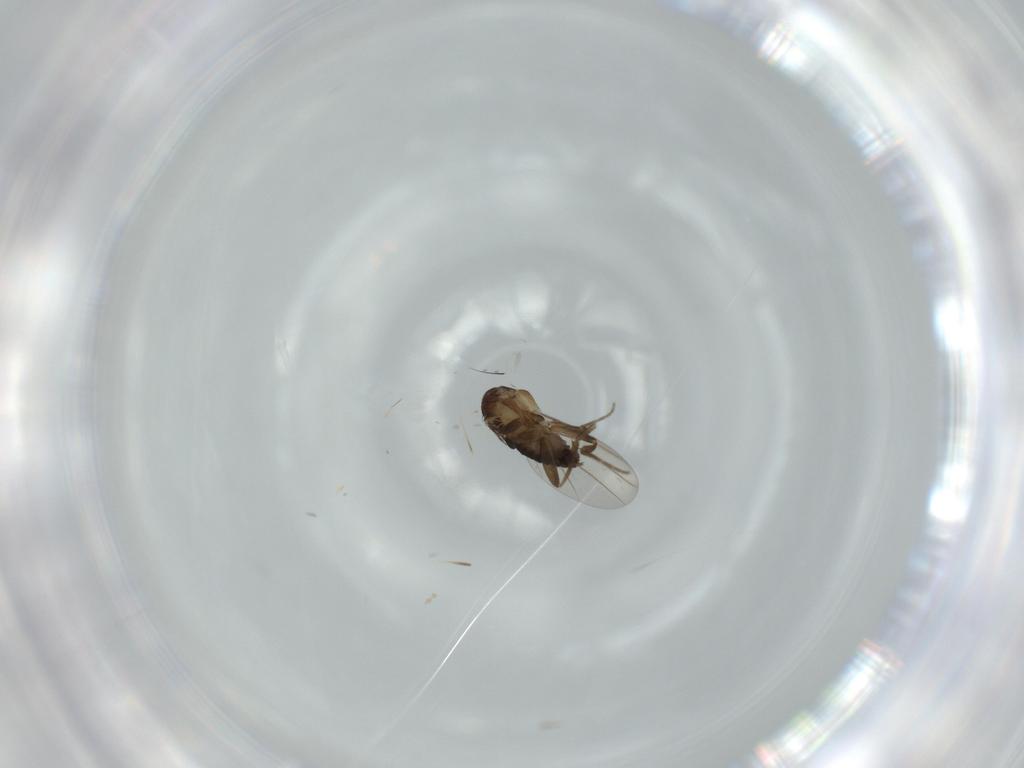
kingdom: Animalia
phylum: Arthropoda
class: Insecta
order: Diptera
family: Phoridae
